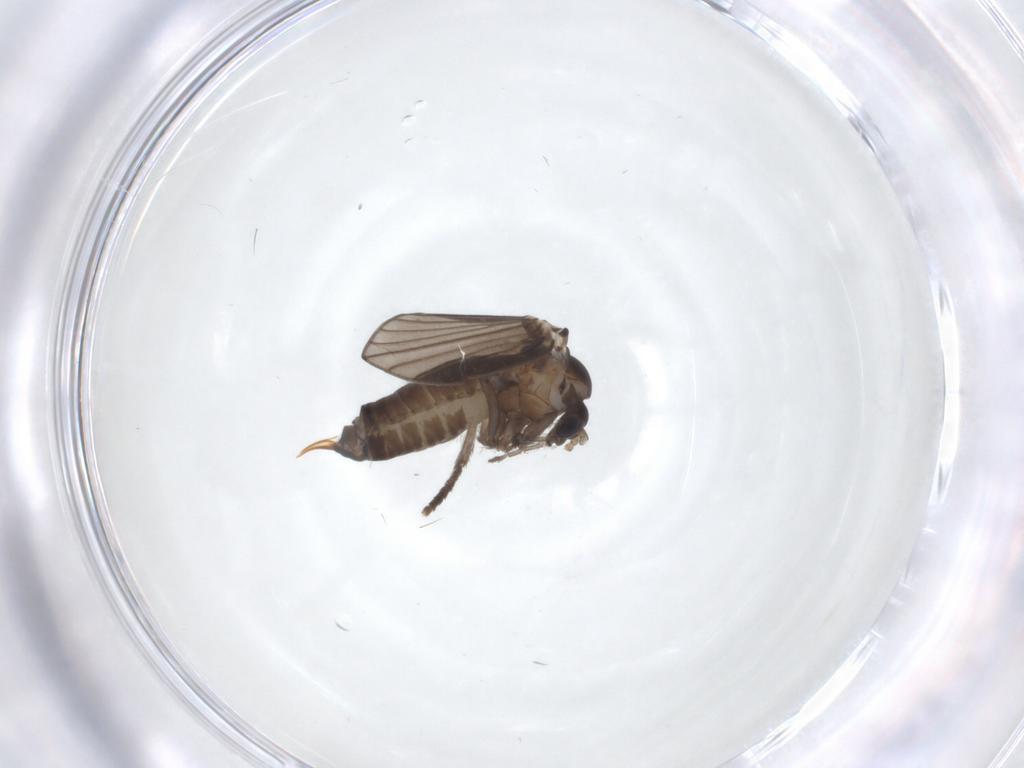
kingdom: Animalia
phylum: Arthropoda
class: Insecta
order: Diptera
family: Psychodidae
